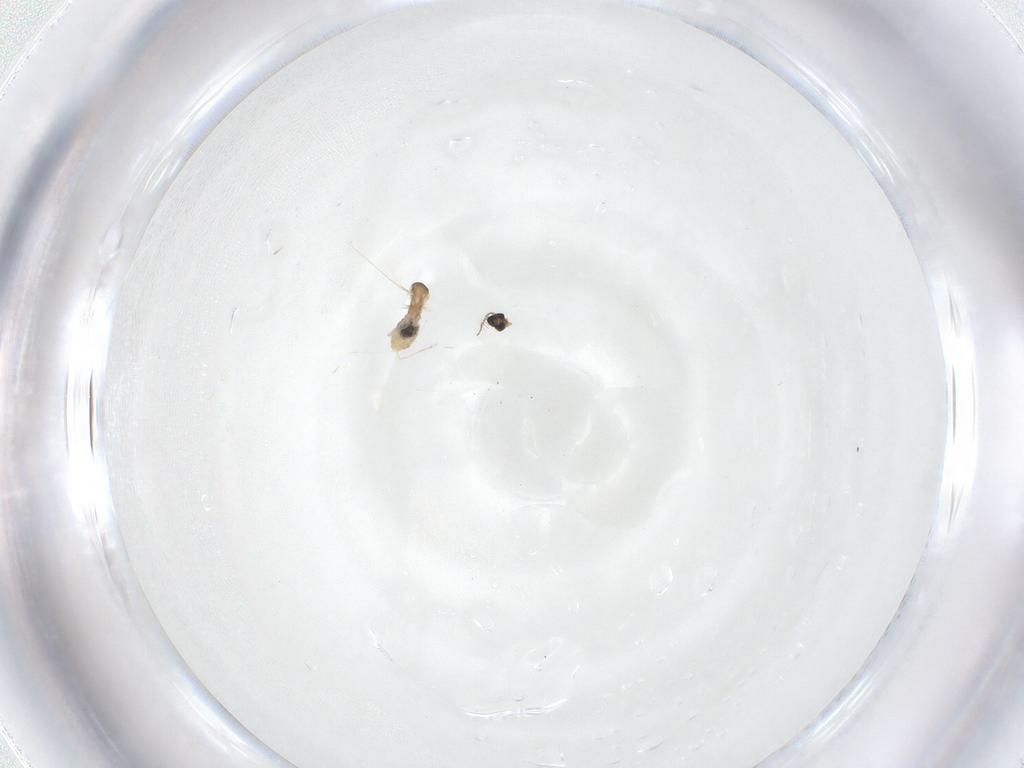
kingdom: Animalia
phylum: Arthropoda
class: Insecta
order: Diptera
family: Cecidomyiidae
